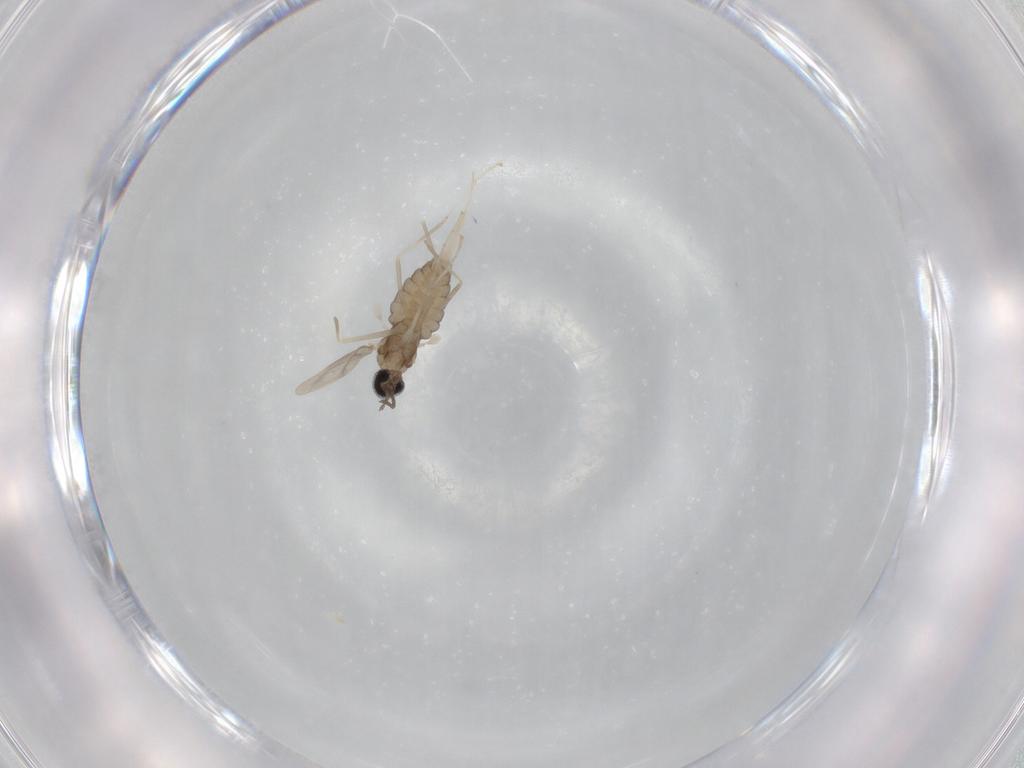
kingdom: Animalia
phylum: Arthropoda
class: Insecta
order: Diptera
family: Cecidomyiidae
